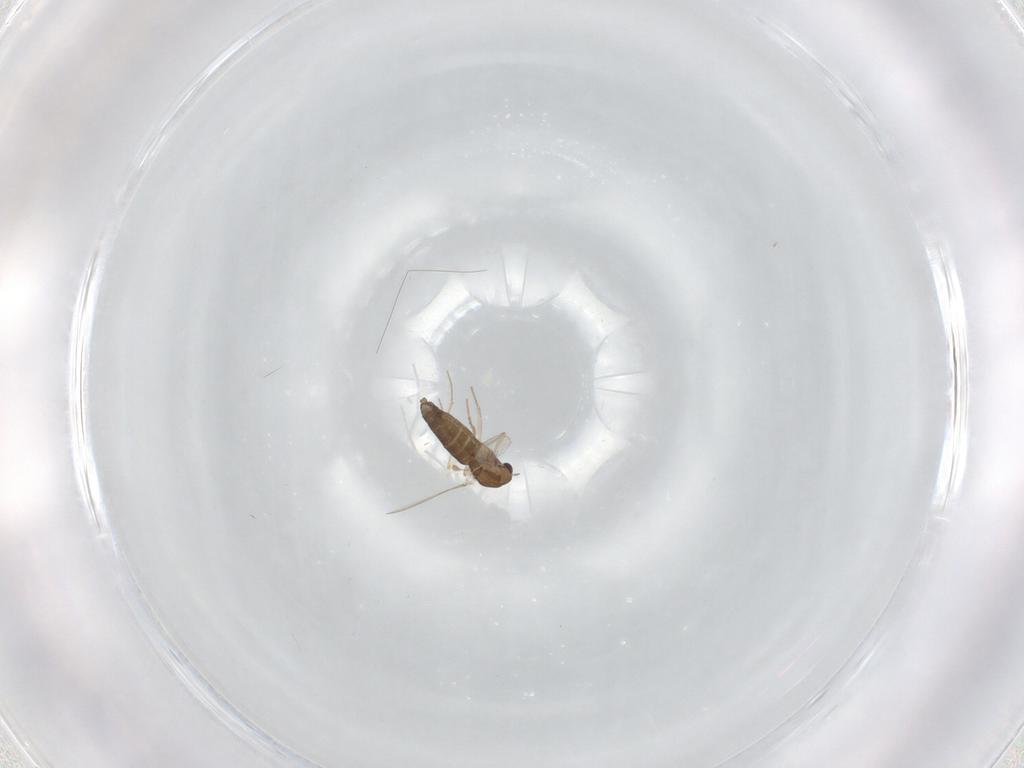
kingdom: Animalia
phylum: Arthropoda
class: Insecta
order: Diptera
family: Chironomidae
